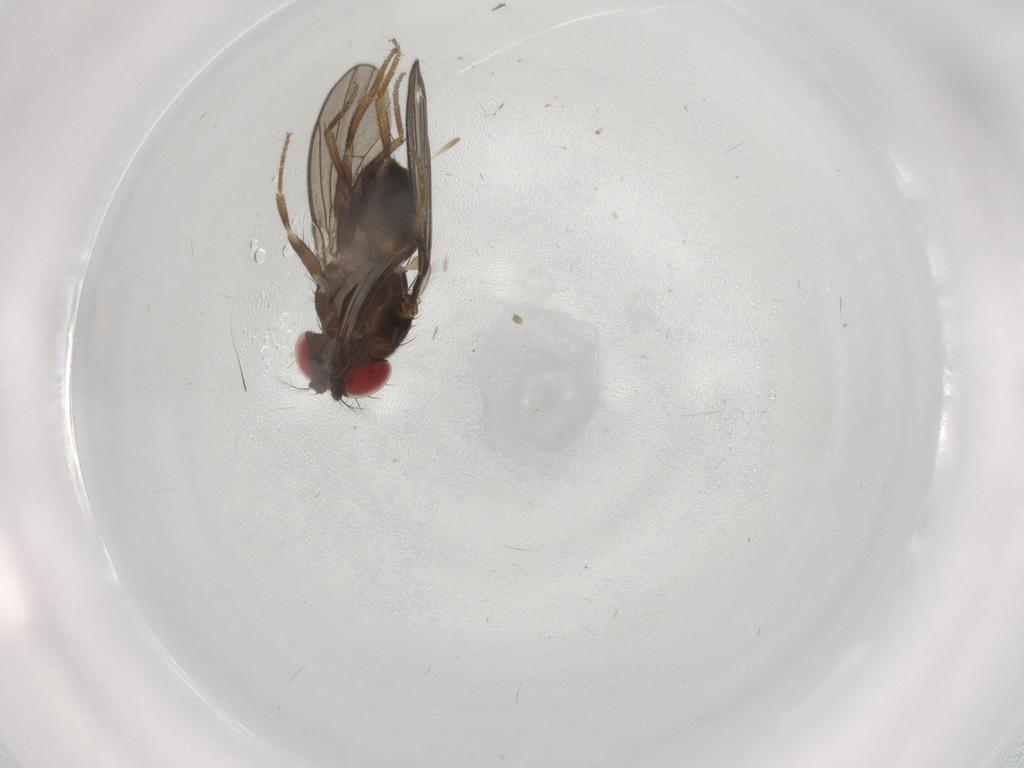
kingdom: Animalia
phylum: Arthropoda
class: Insecta
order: Diptera
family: Drosophilidae
